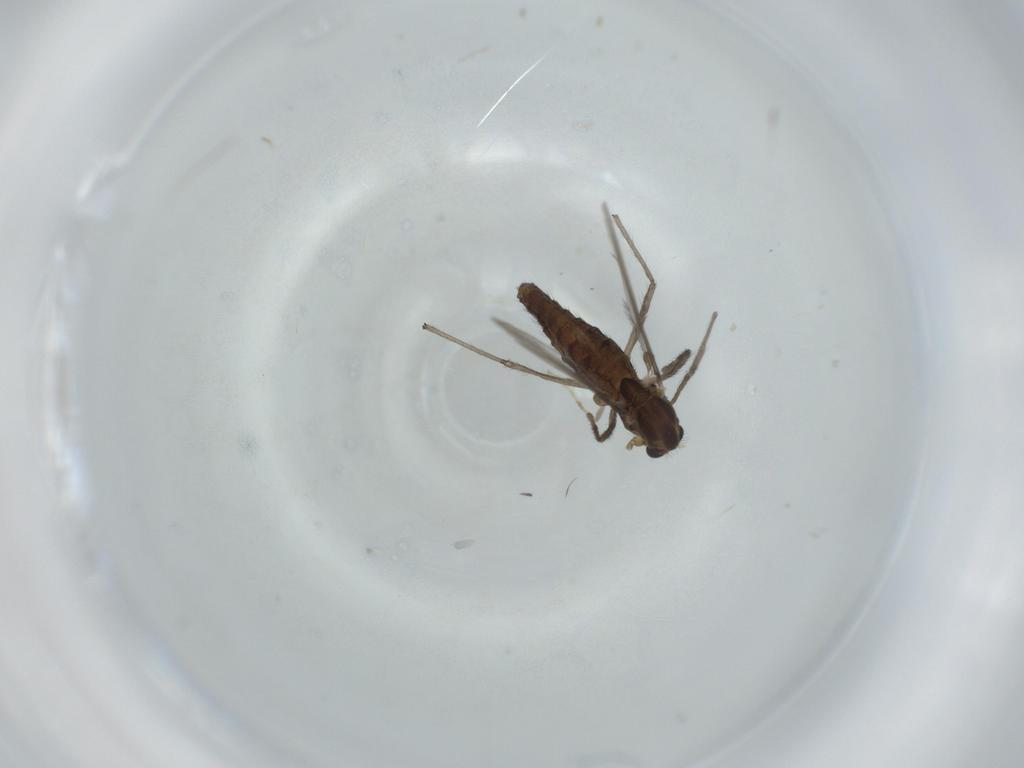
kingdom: Animalia
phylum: Arthropoda
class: Insecta
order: Diptera
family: Chironomidae
